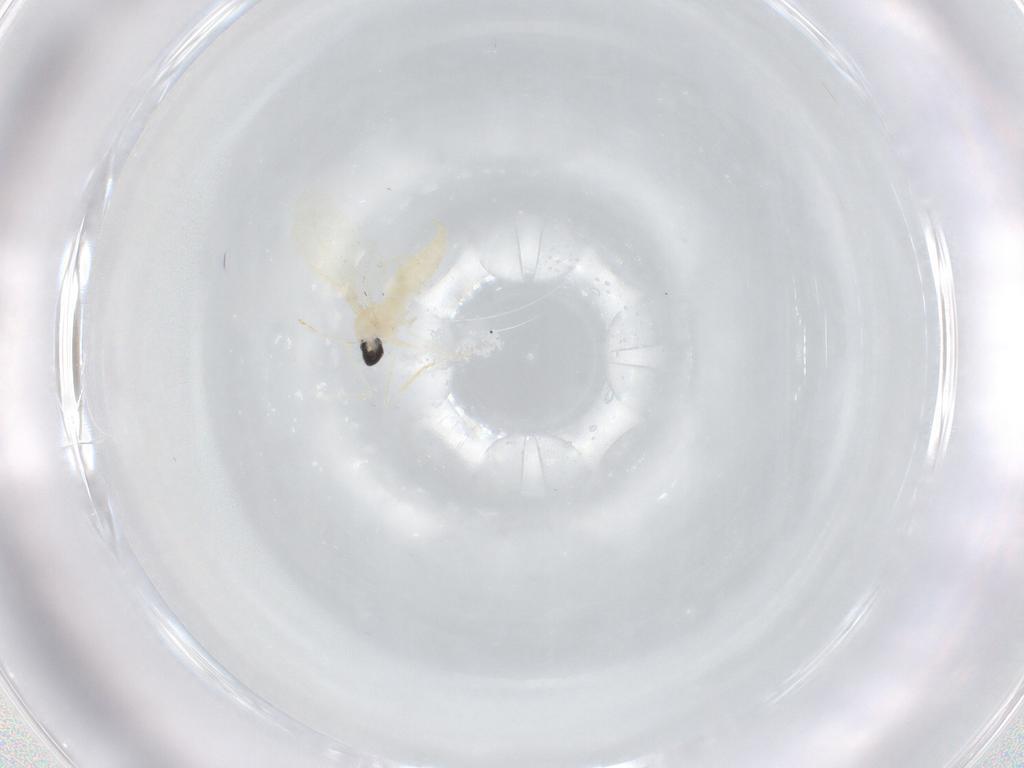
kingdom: Animalia
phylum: Arthropoda
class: Insecta
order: Diptera
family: Cecidomyiidae
